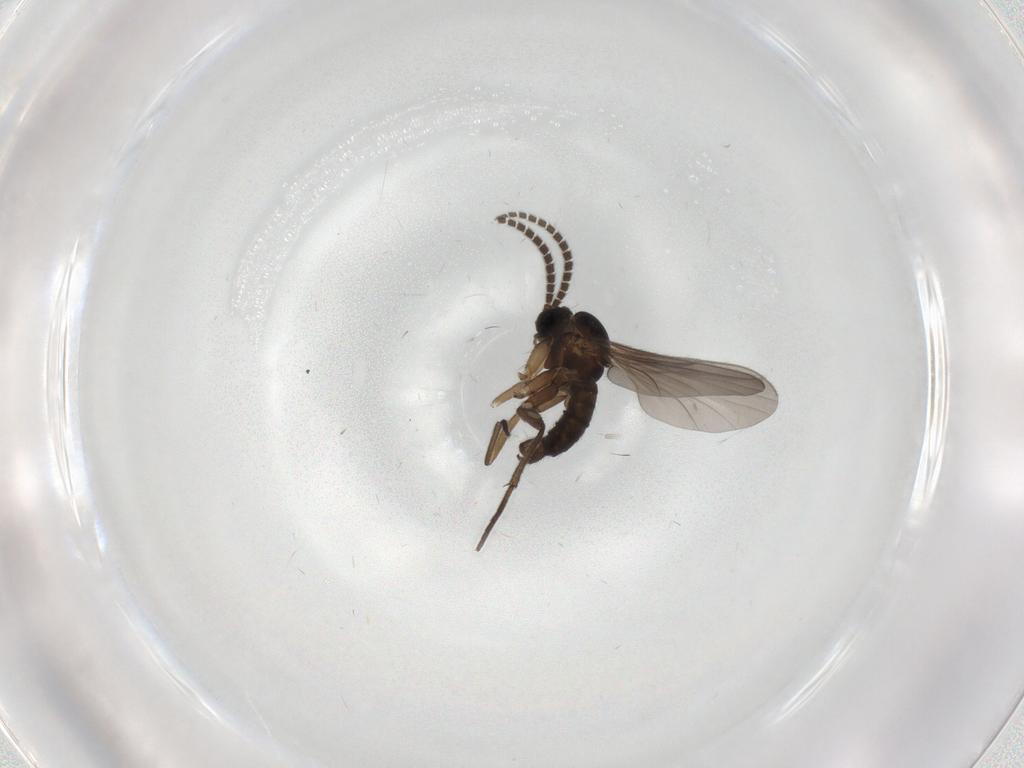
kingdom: Animalia
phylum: Arthropoda
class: Insecta
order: Diptera
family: Sciaridae
